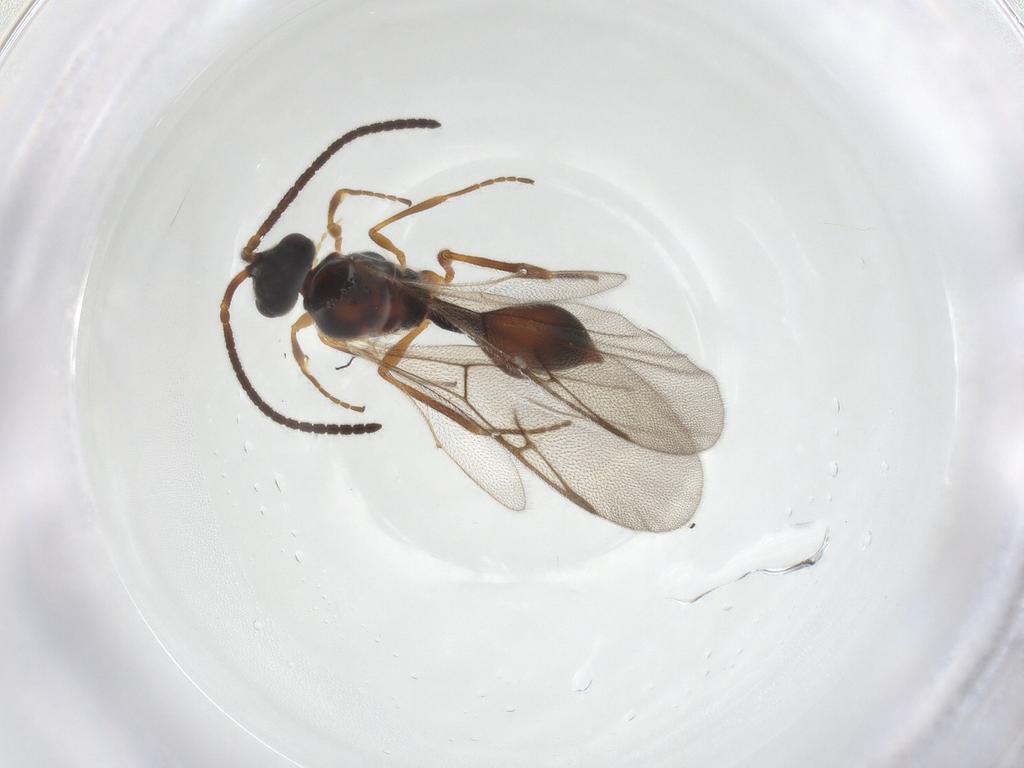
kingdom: Animalia
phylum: Arthropoda
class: Insecta
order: Hymenoptera
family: Diapriidae
